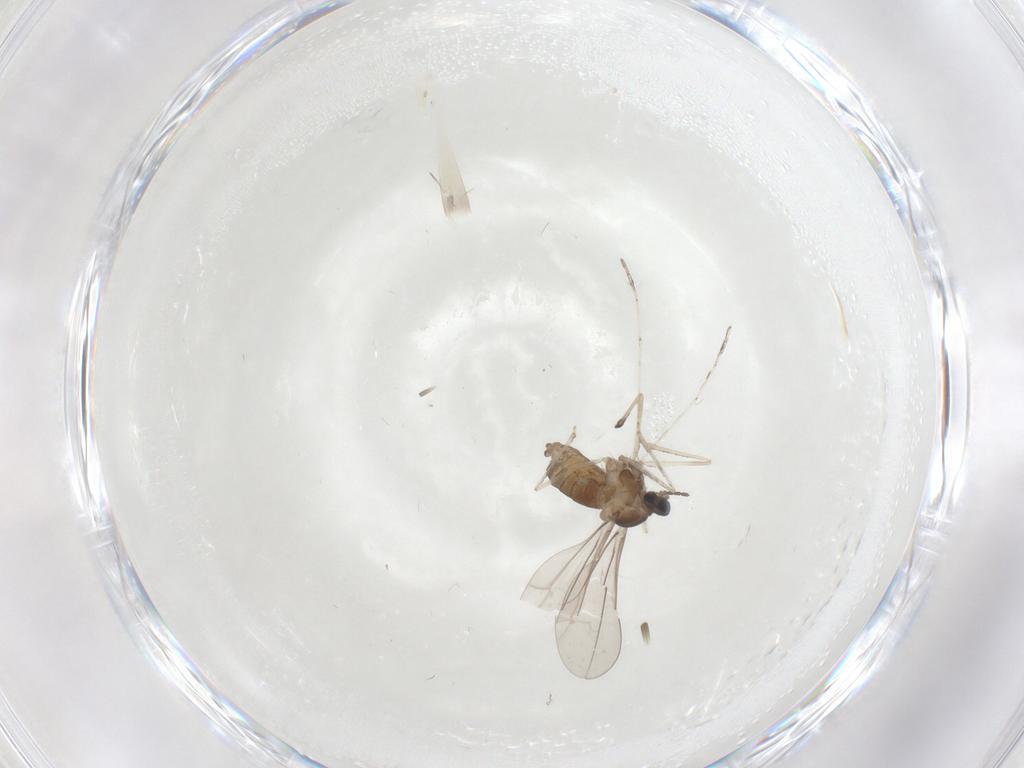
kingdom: Animalia
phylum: Arthropoda
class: Insecta
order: Diptera
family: Cecidomyiidae
